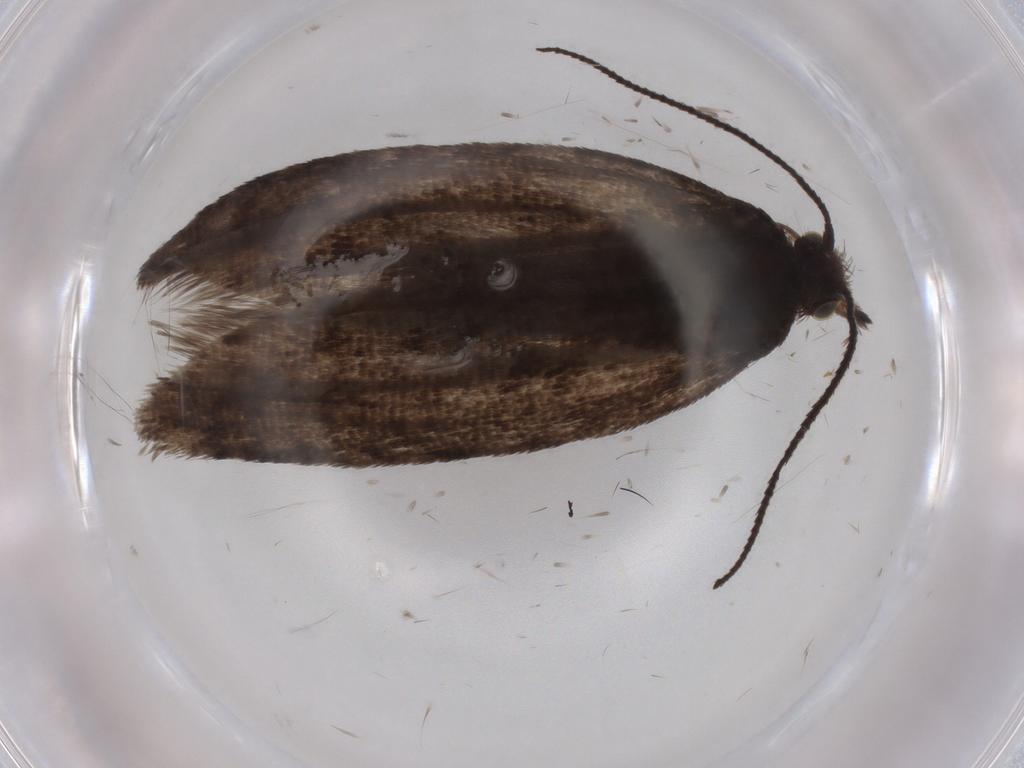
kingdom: Animalia
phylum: Arthropoda
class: Insecta
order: Lepidoptera
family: Tortricidae
